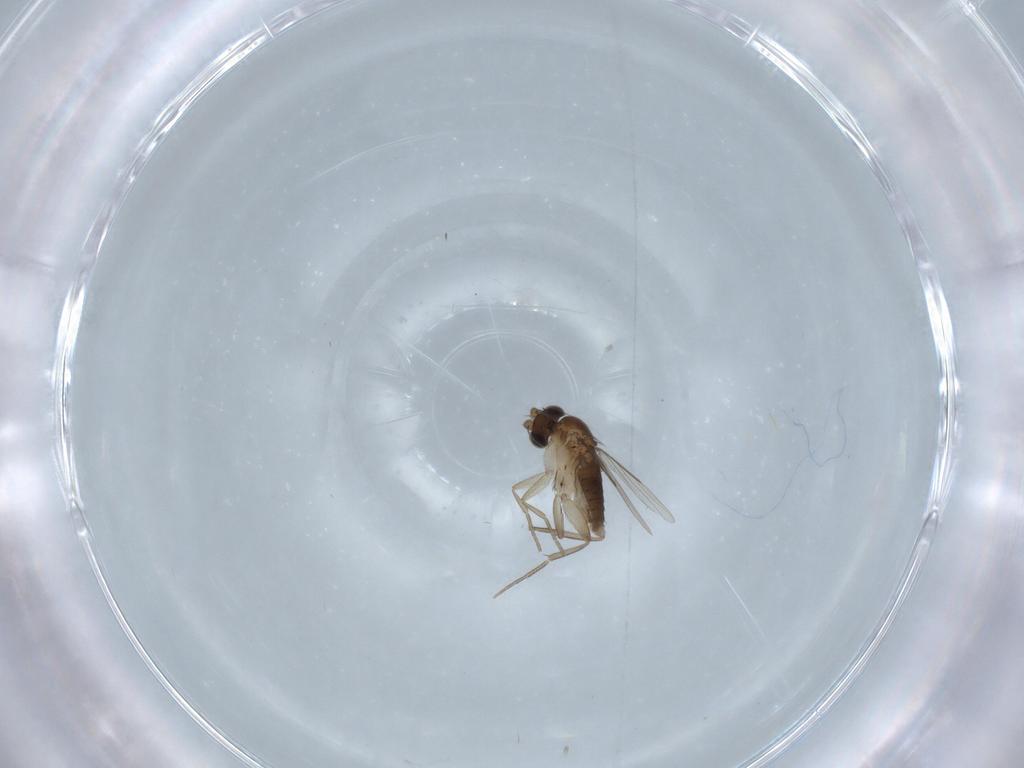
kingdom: Animalia
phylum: Arthropoda
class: Insecta
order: Diptera
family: Phoridae
